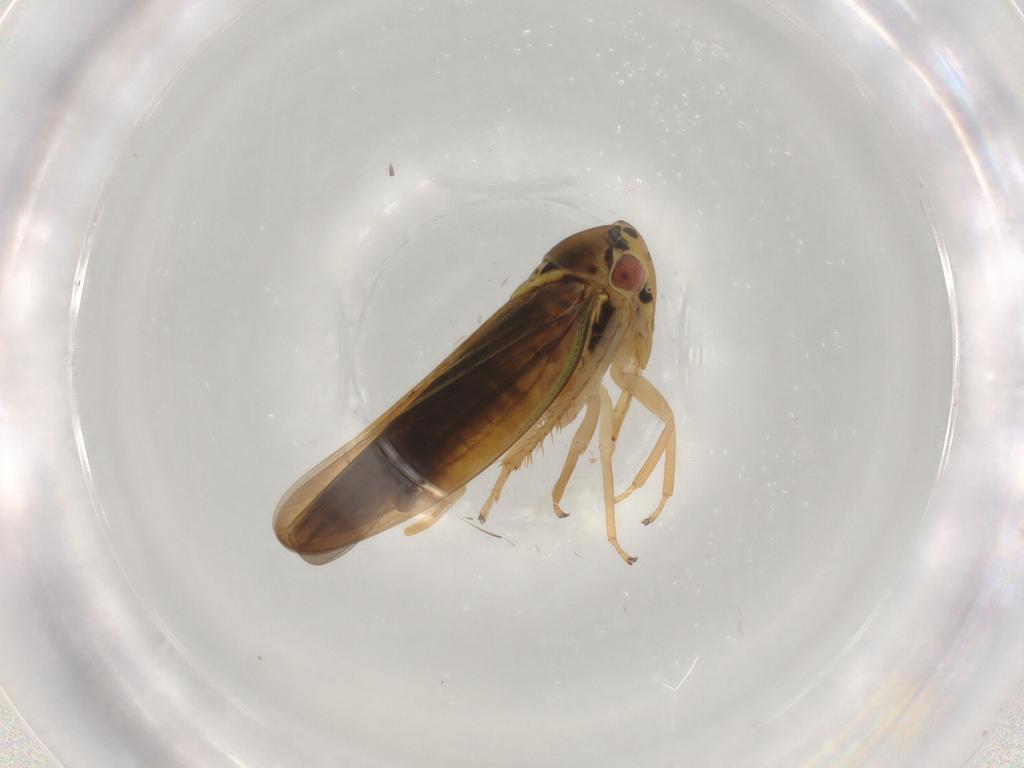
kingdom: Animalia
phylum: Arthropoda
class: Insecta
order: Hemiptera
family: Cicadellidae
